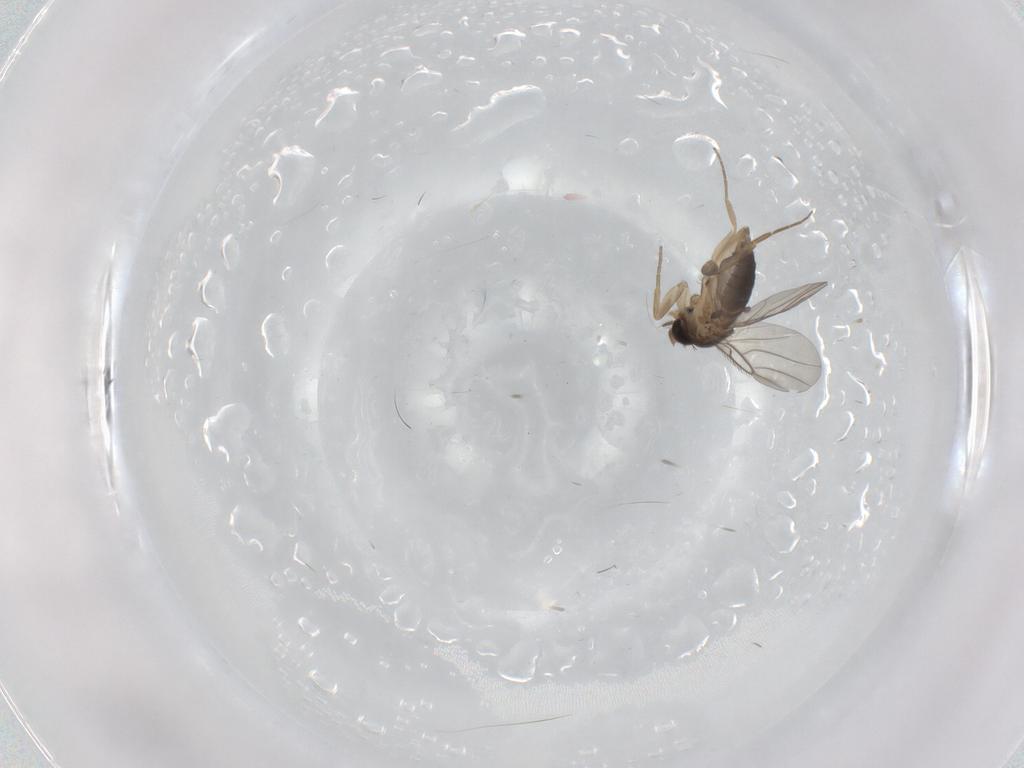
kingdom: Animalia
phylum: Arthropoda
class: Insecta
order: Diptera
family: Phoridae
